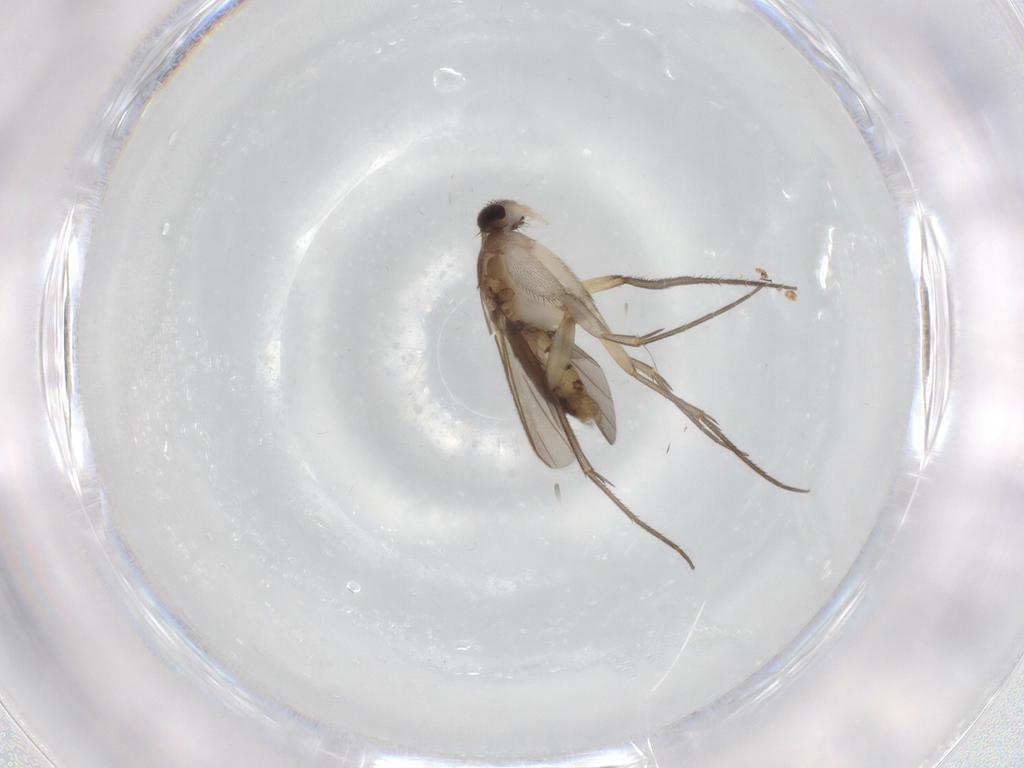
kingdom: Animalia
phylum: Arthropoda
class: Insecta
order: Diptera
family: Mycetophilidae
